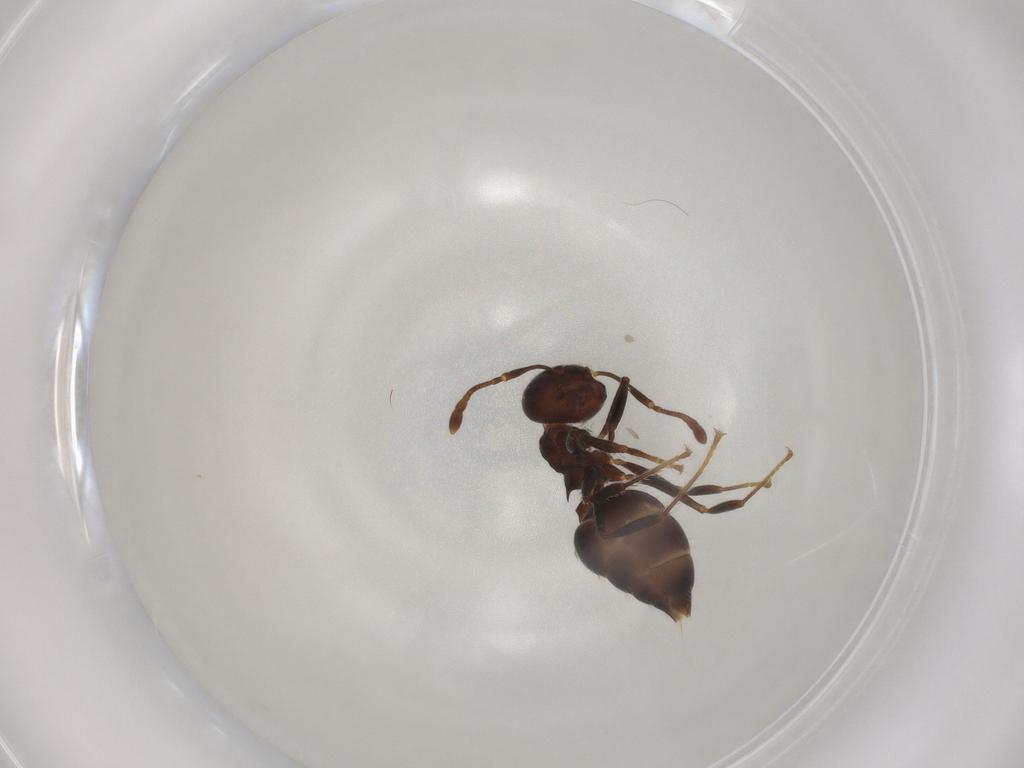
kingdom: Animalia
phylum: Arthropoda
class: Insecta
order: Hymenoptera
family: Formicidae
